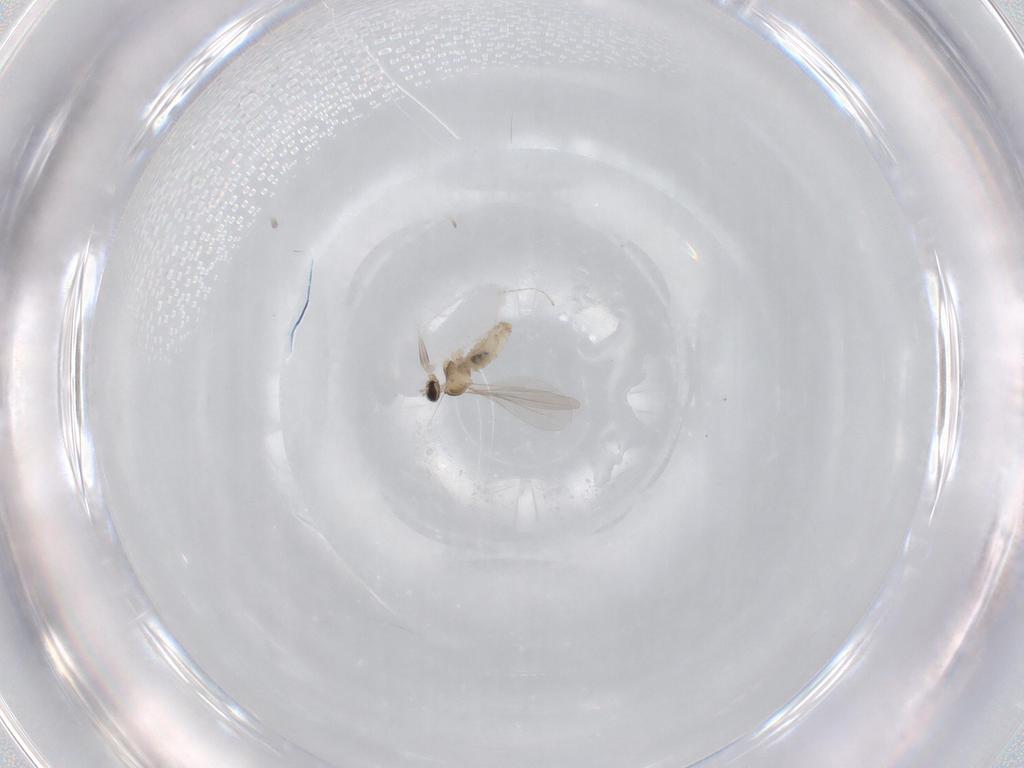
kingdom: Animalia
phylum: Arthropoda
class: Insecta
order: Diptera
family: Cecidomyiidae
